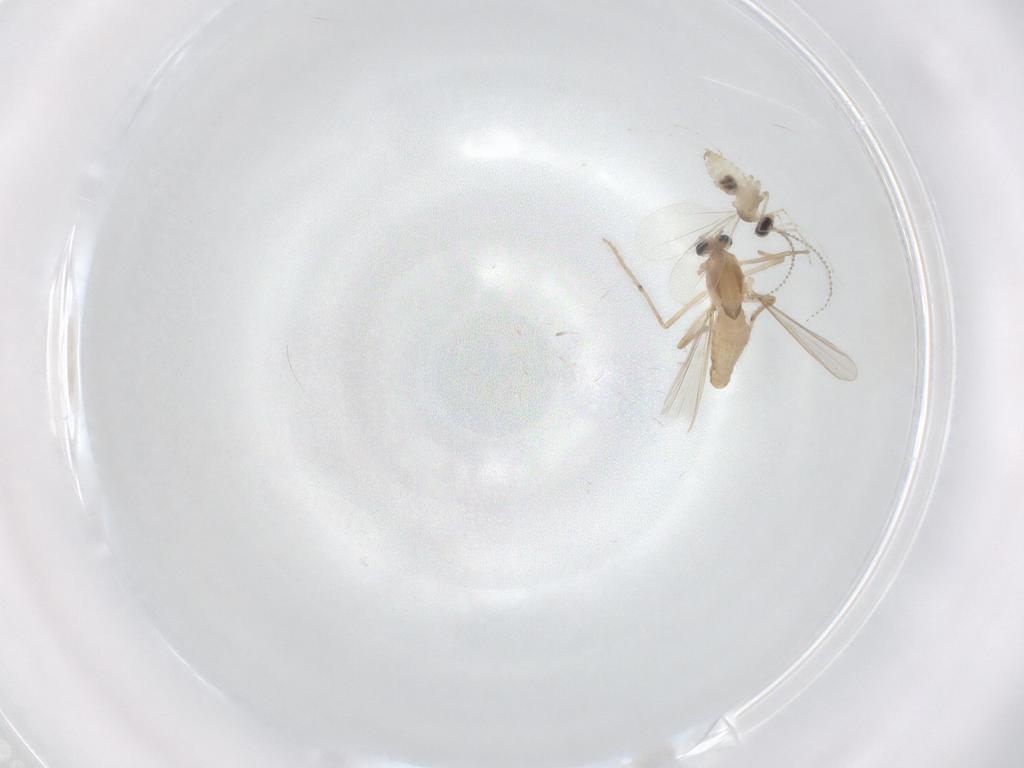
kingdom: Animalia
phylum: Arthropoda
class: Insecta
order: Diptera
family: Chironomidae
